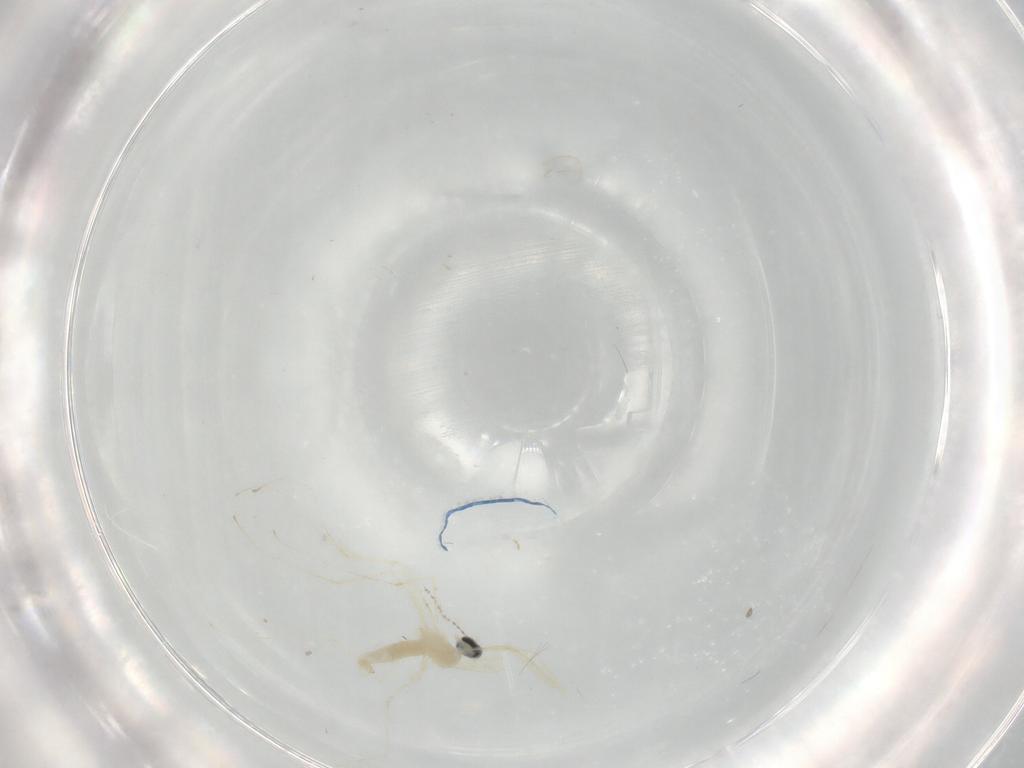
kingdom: Animalia
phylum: Arthropoda
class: Insecta
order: Diptera
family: Cecidomyiidae
